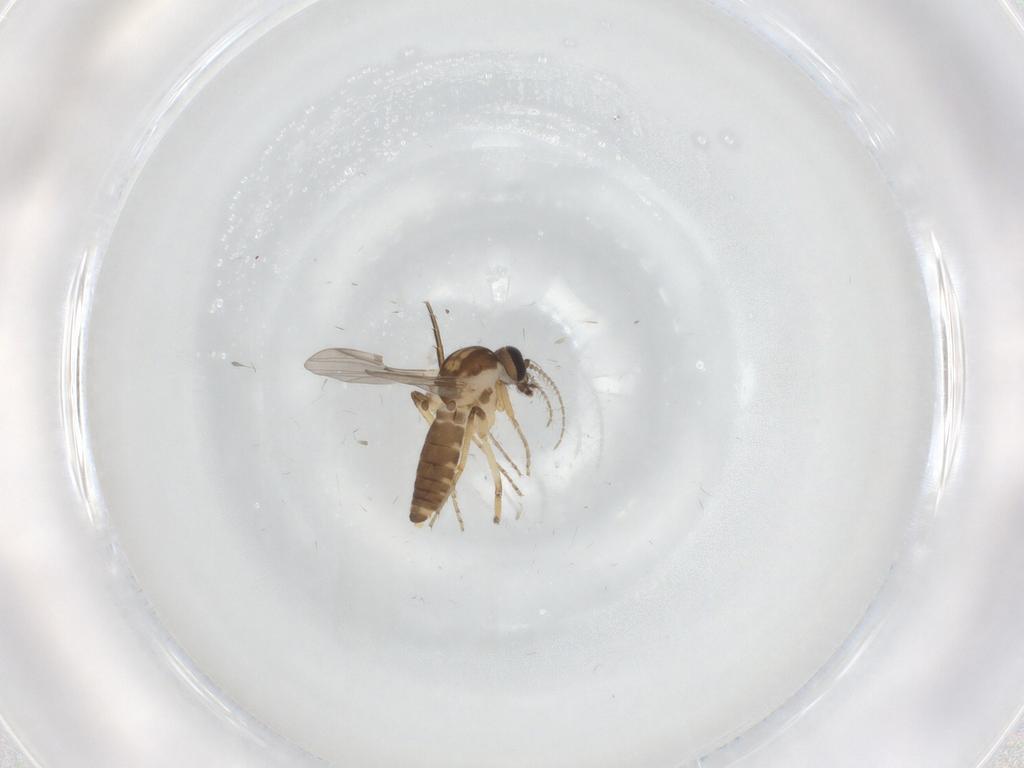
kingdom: Animalia
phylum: Arthropoda
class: Insecta
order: Diptera
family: Phoridae
